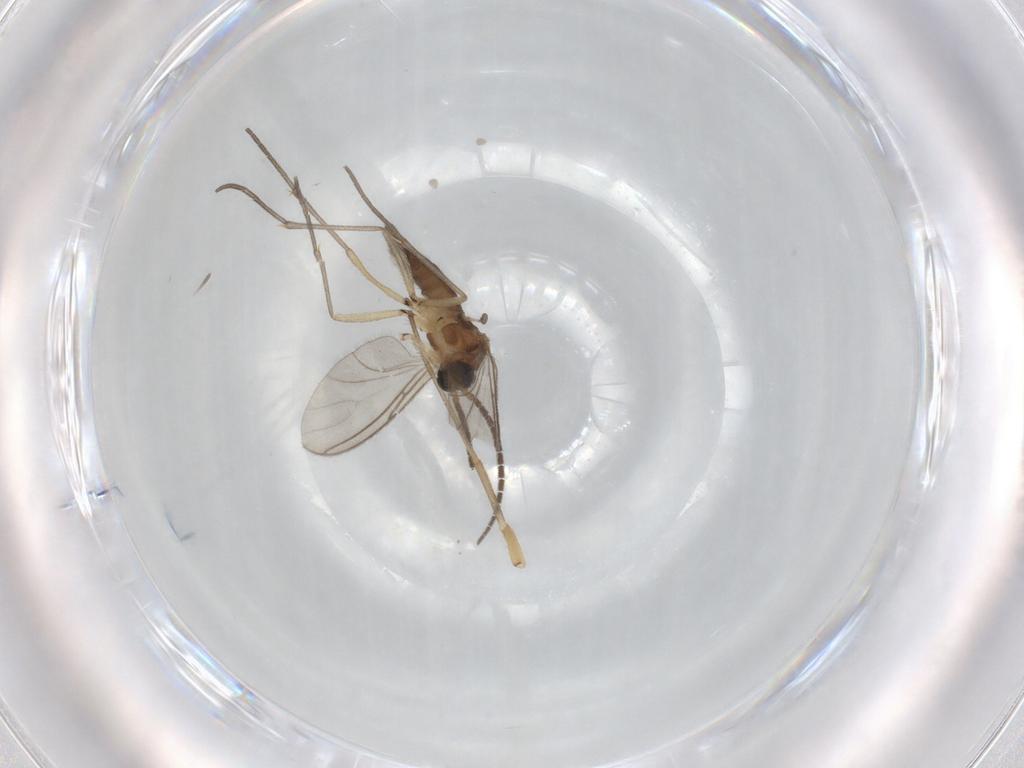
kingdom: Animalia
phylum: Arthropoda
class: Insecta
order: Diptera
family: Sciaridae
